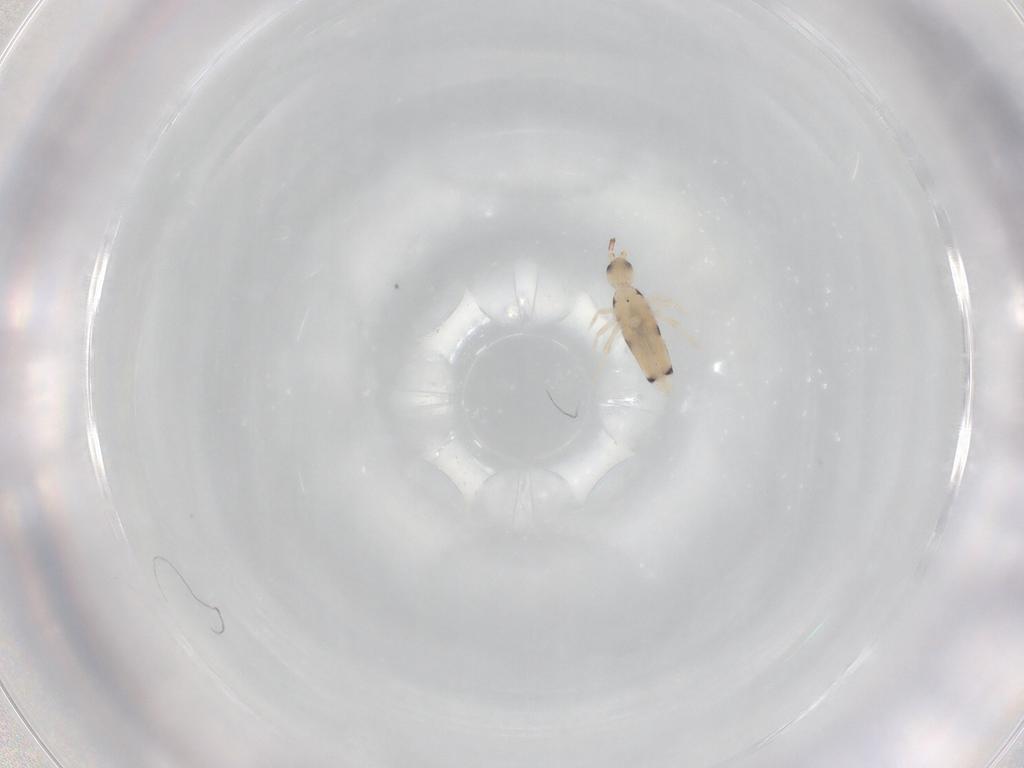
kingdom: Animalia
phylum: Arthropoda
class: Collembola
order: Entomobryomorpha
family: Entomobryidae
